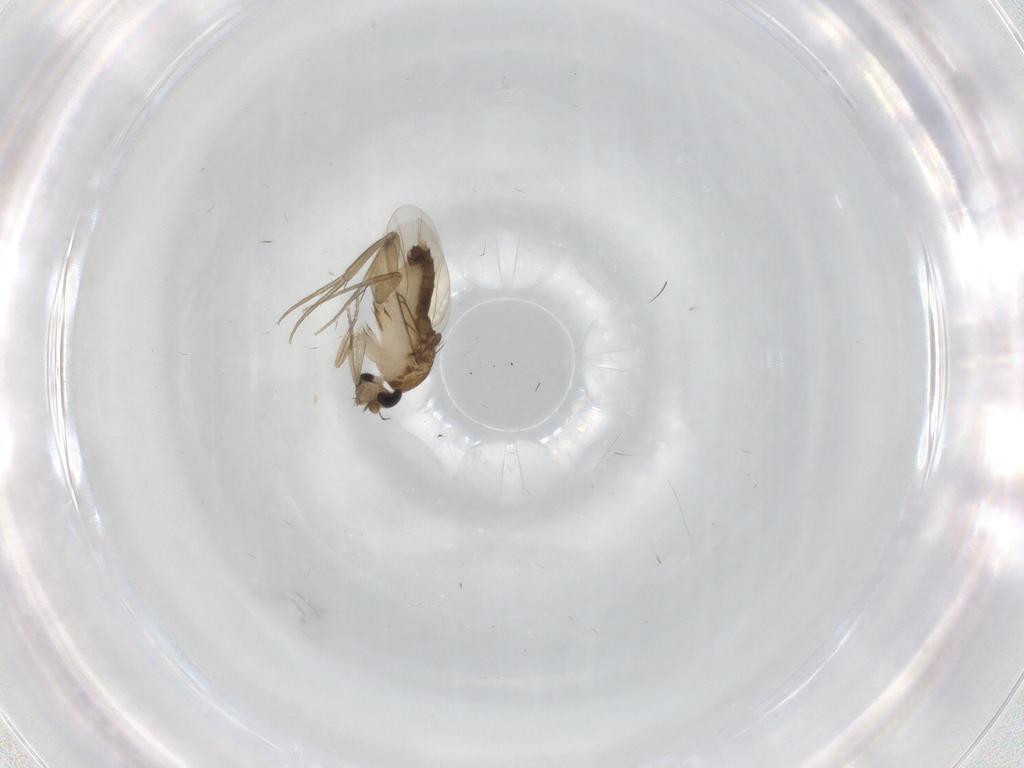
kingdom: Animalia
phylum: Arthropoda
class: Insecta
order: Diptera
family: Phoridae
